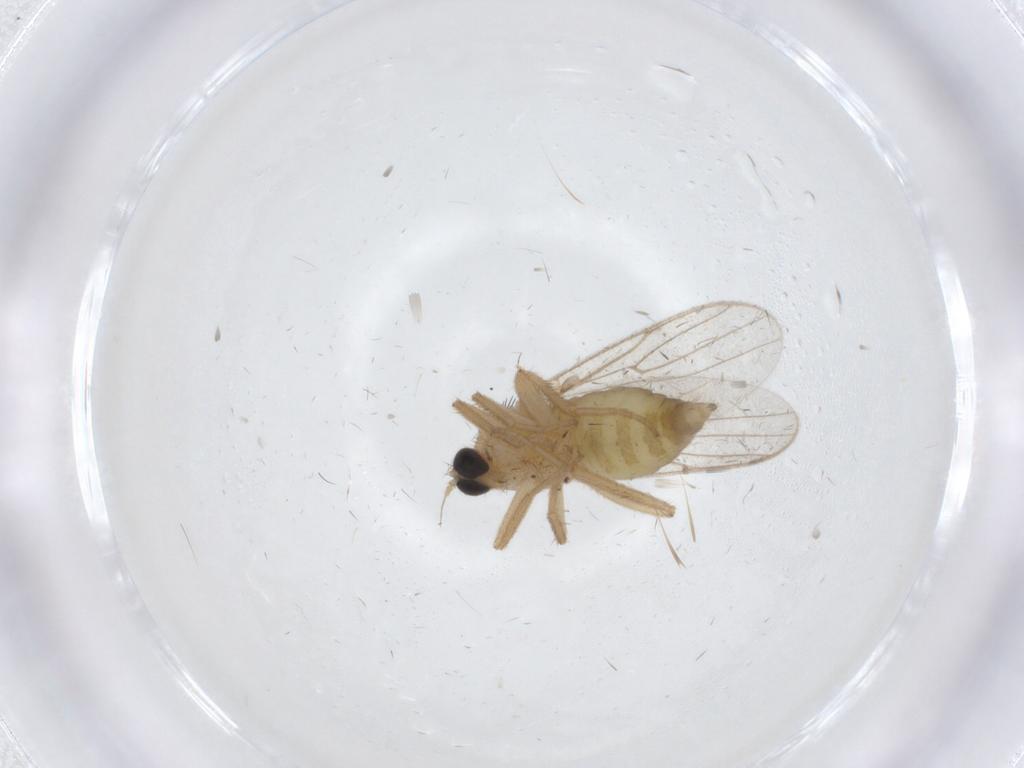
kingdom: Animalia
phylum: Arthropoda
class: Insecta
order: Diptera
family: Hybotidae
